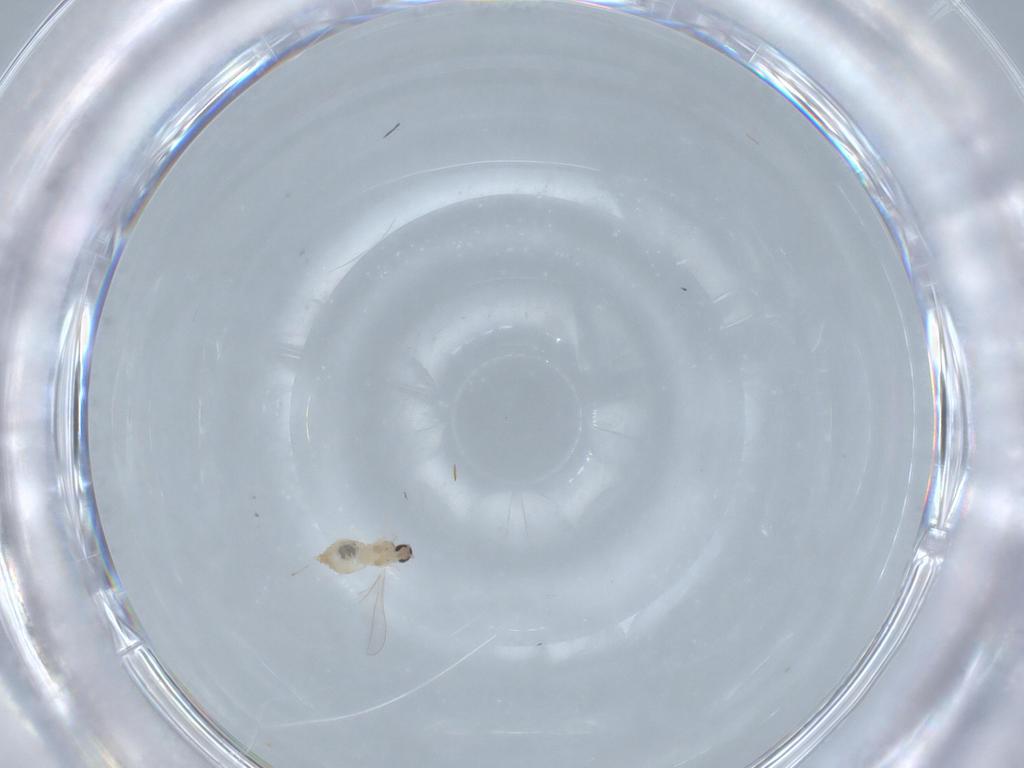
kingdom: Animalia
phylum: Arthropoda
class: Insecta
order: Diptera
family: Cecidomyiidae
